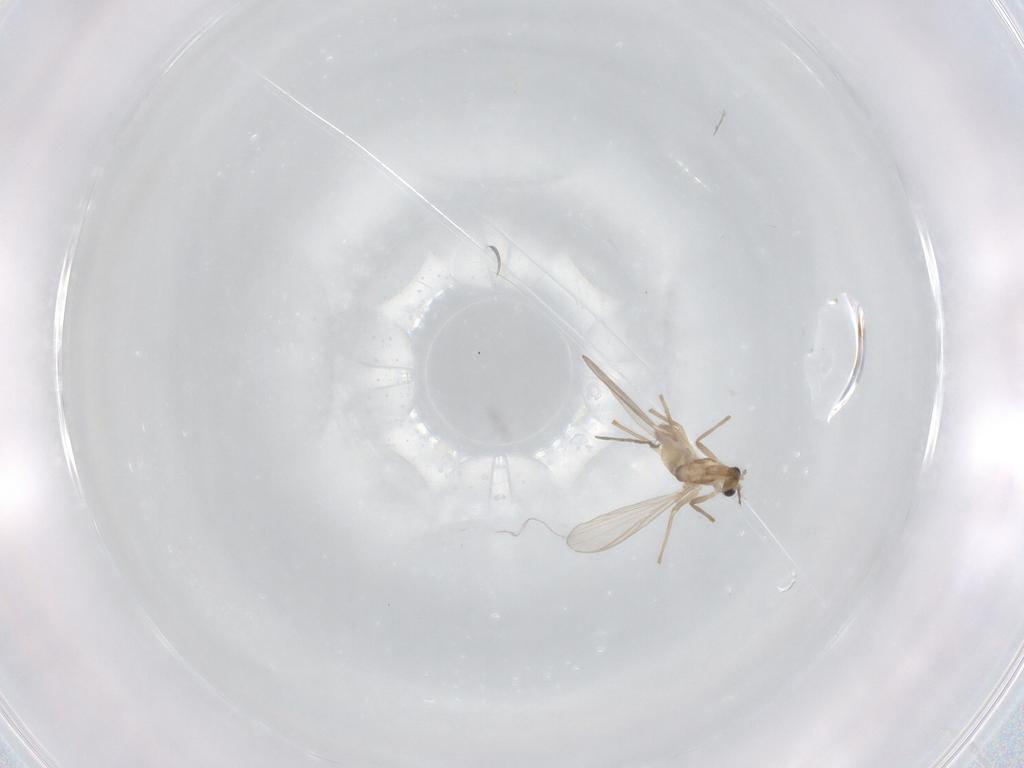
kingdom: Animalia
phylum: Arthropoda
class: Insecta
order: Diptera
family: Chironomidae
